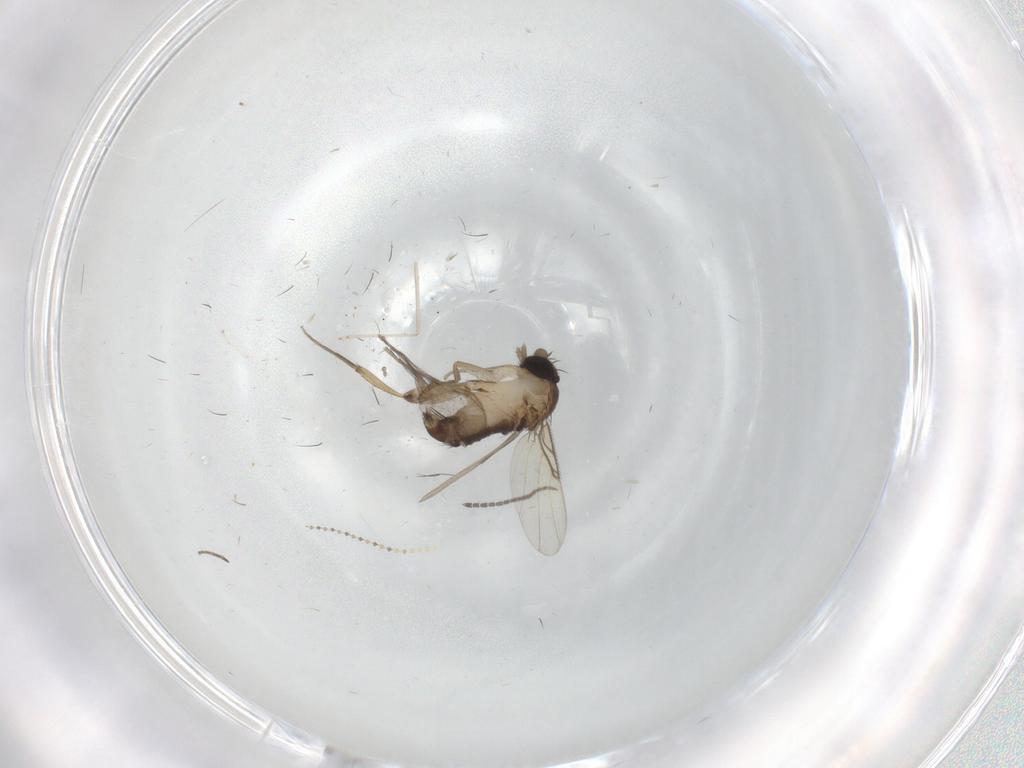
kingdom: Animalia
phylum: Arthropoda
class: Insecta
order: Diptera
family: Phoridae
